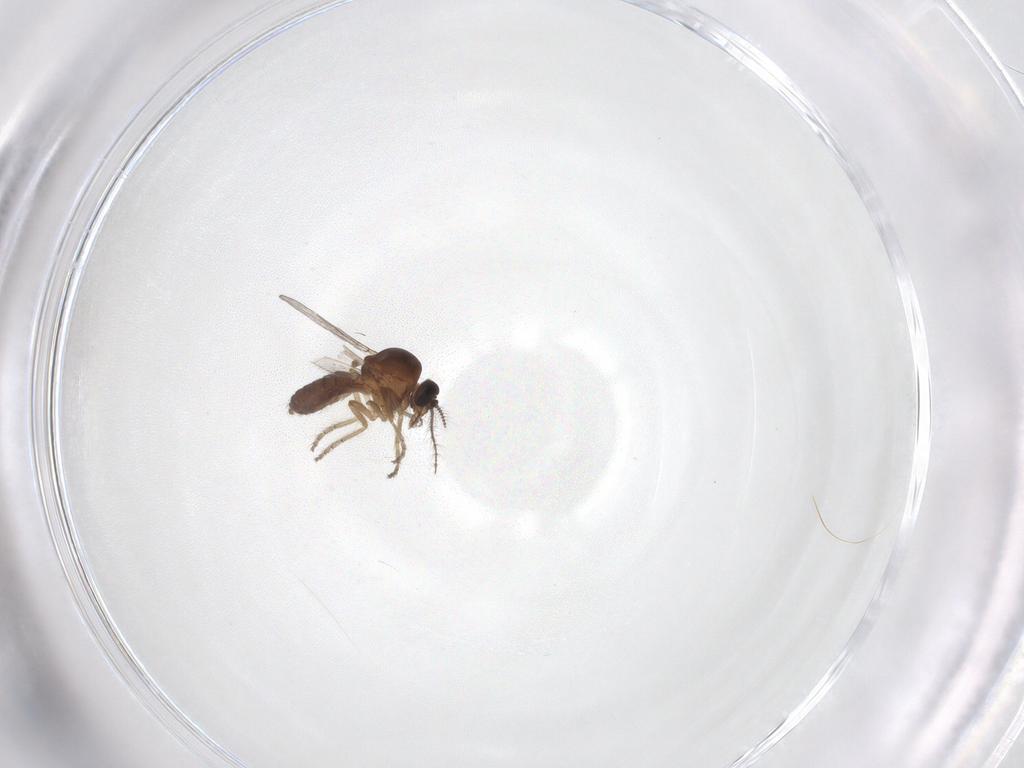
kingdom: Animalia
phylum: Arthropoda
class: Insecta
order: Diptera
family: Ceratopogonidae
